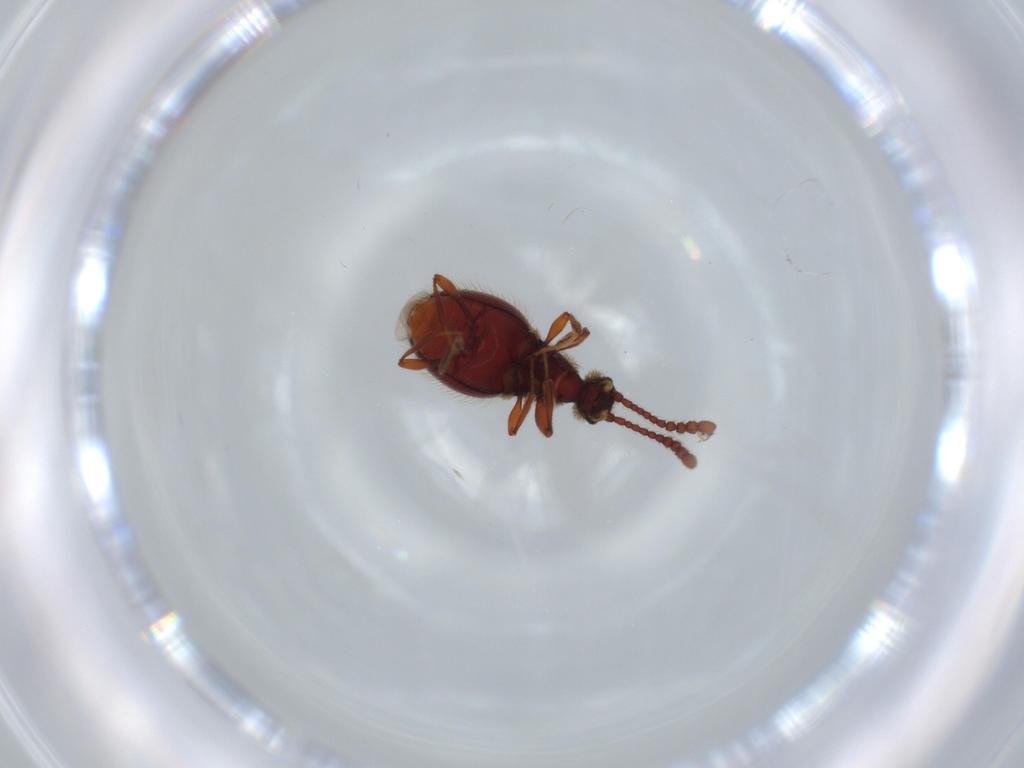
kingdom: Animalia
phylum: Arthropoda
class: Insecta
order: Coleoptera
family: Staphylinidae
